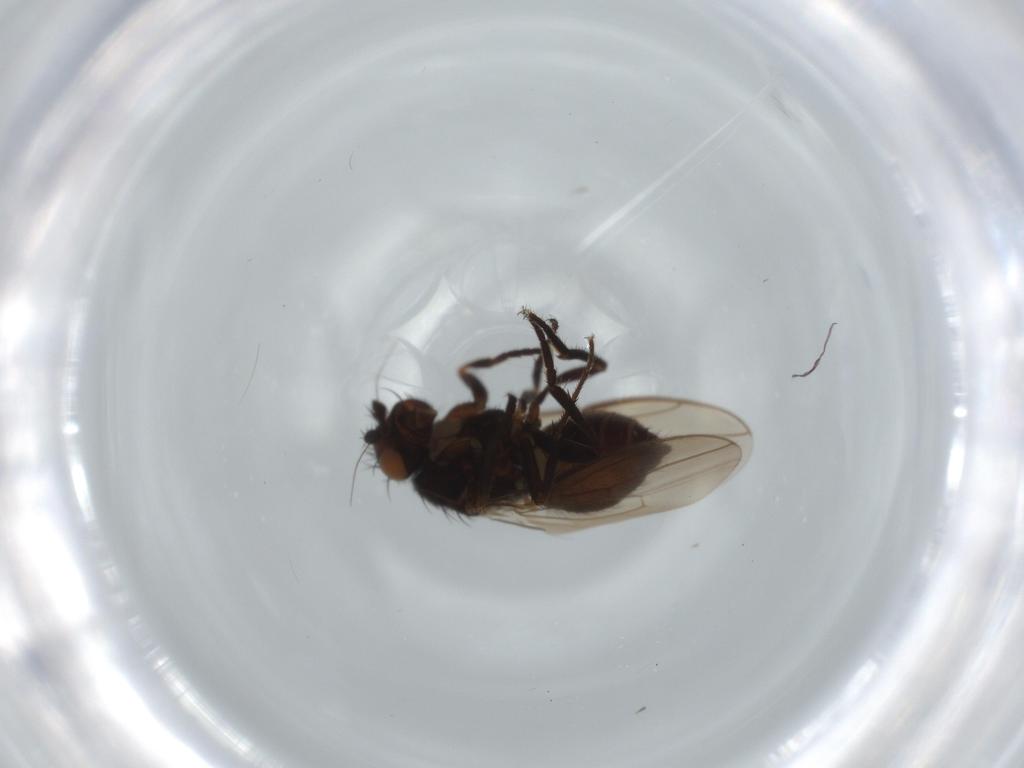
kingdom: Animalia
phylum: Arthropoda
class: Insecta
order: Diptera
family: Sphaeroceridae
